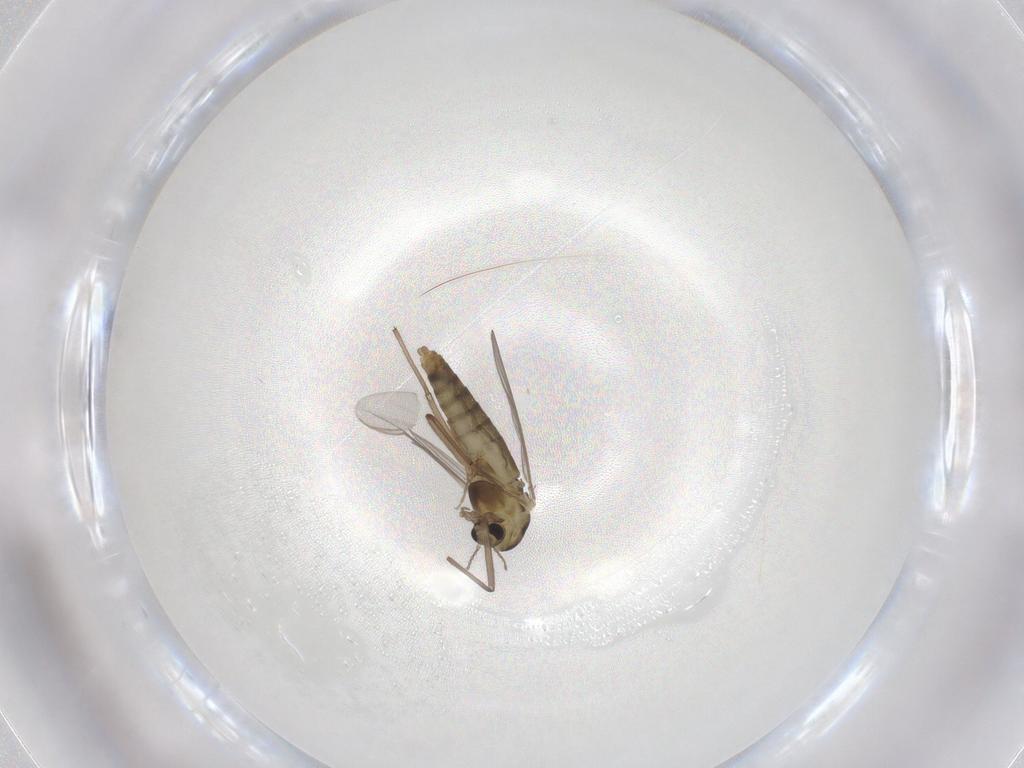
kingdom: Animalia
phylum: Arthropoda
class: Insecta
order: Diptera
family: Chironomidae
